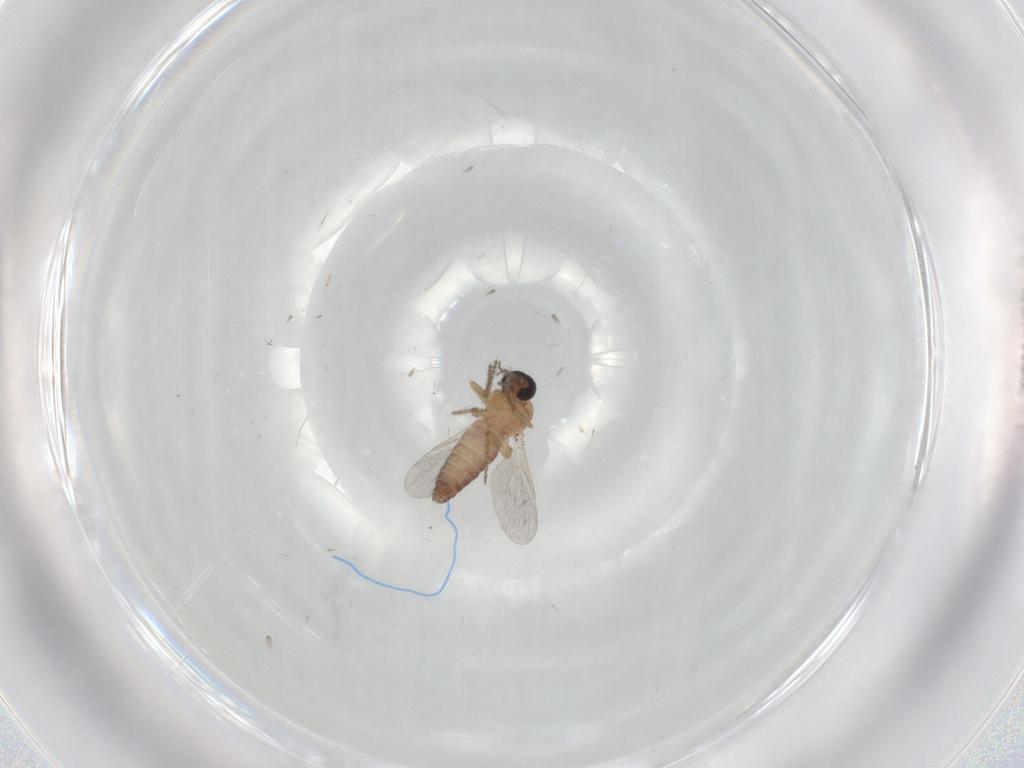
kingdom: Animalia
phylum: Arthropoda
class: Insecta
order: Diptera
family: Ceratopogonidae
